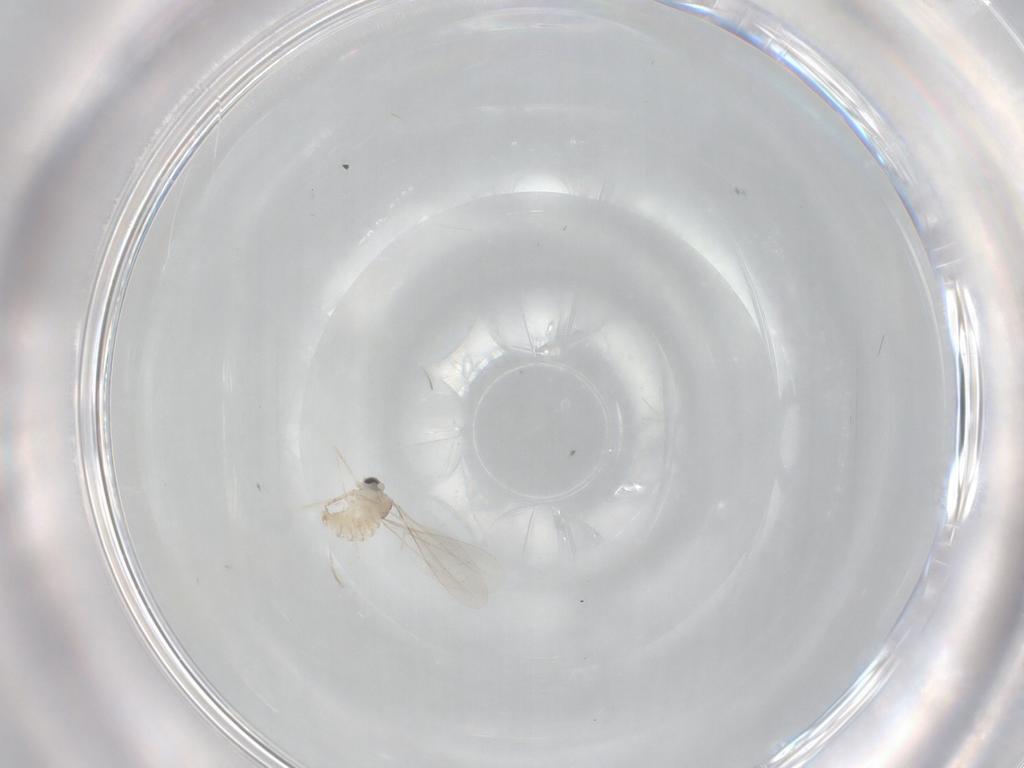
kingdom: Animalia
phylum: Arthropoda
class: Insecta
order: Diptera
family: Cecidomyiidae
